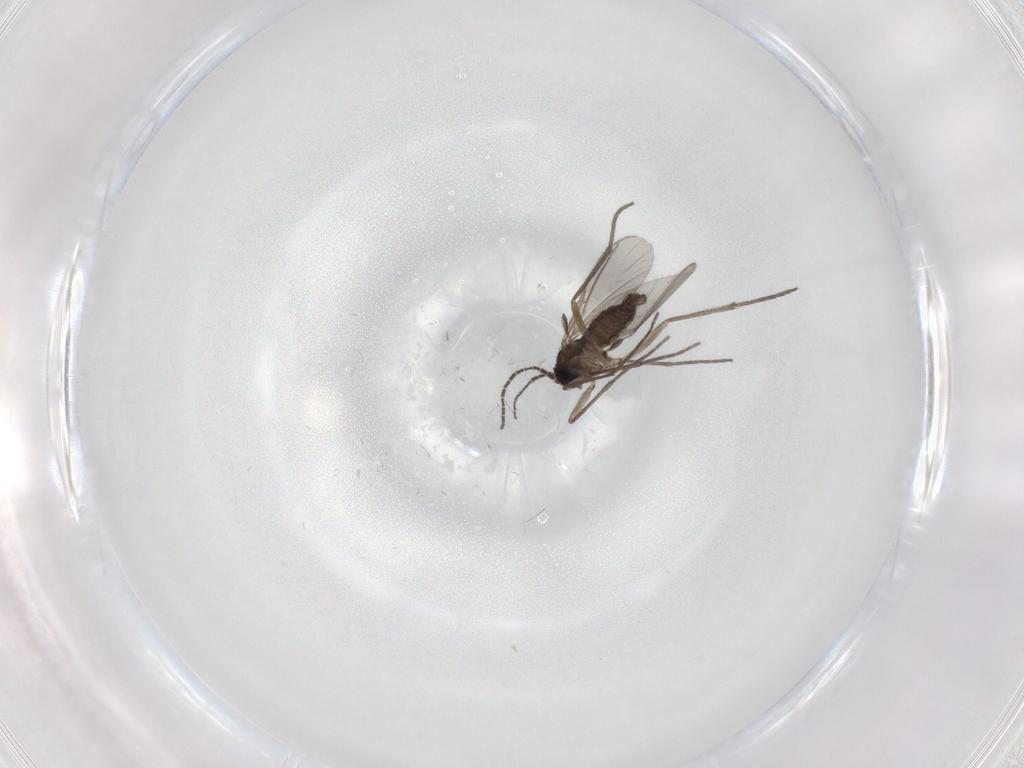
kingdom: Animalia
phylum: Arthropoda
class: Insecta
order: Diptera
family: Sciaridae
